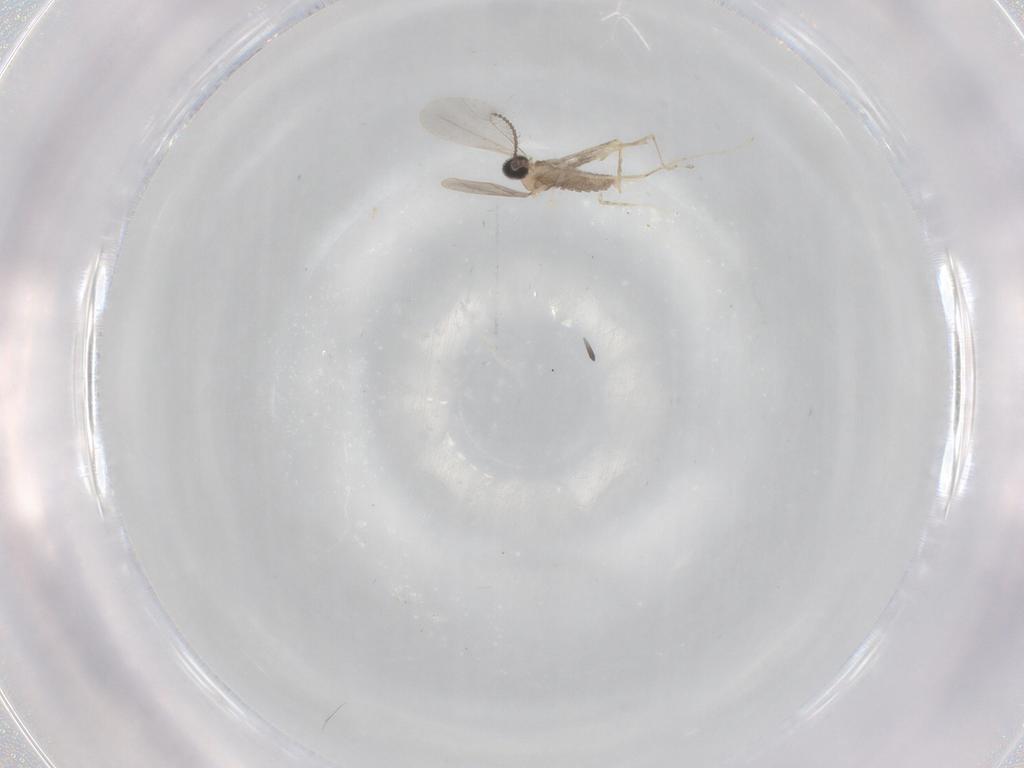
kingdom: Animalia
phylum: Arthropoda
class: Insecta
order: Diptera
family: Cecidomyiidae
